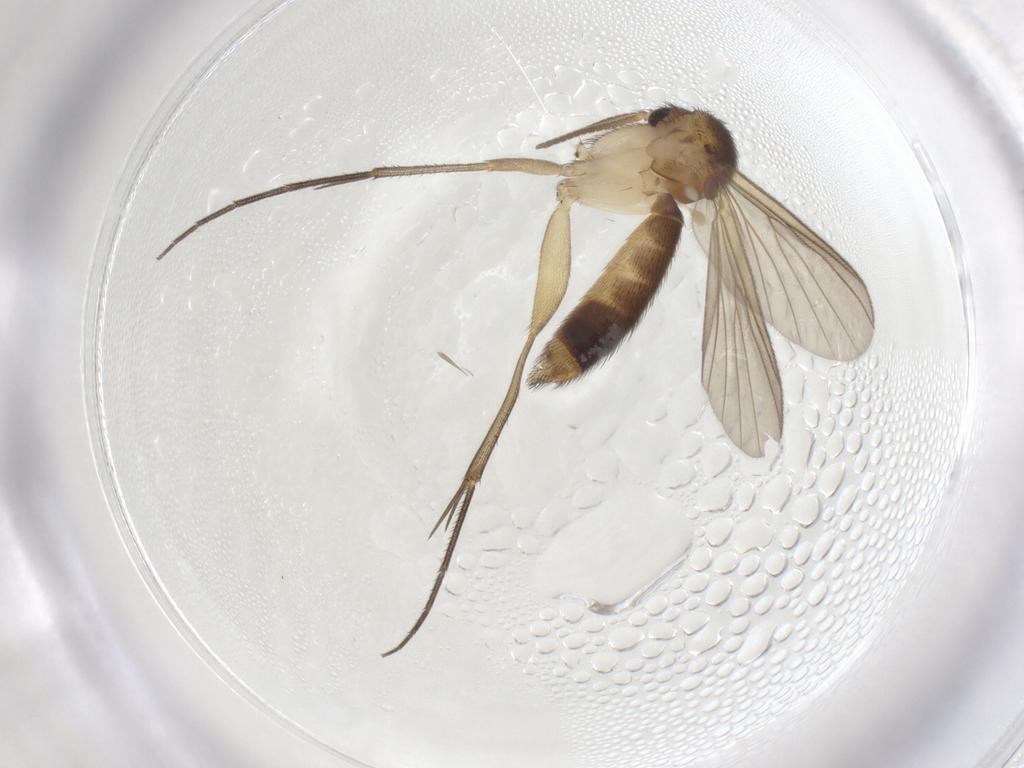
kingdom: Animalia
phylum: Arthropoda
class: Insecta
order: Diptera
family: Mycetophilidae
